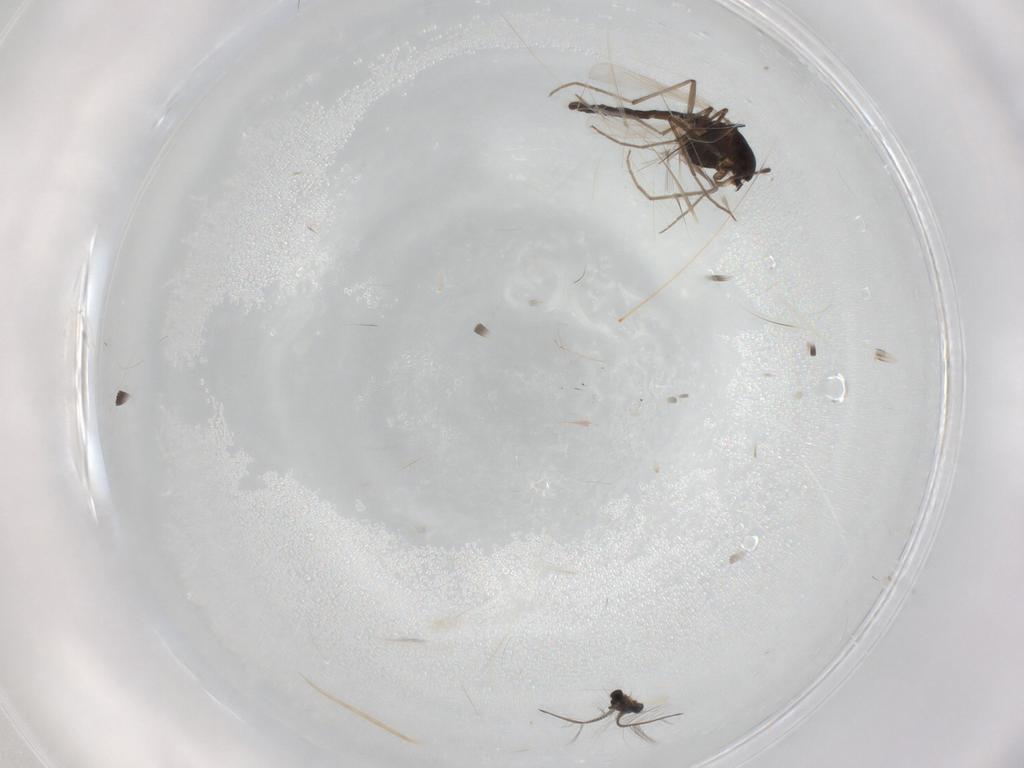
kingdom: Animalia
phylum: Arthropoda
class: Insecta
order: Diptera
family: Chironomidae
